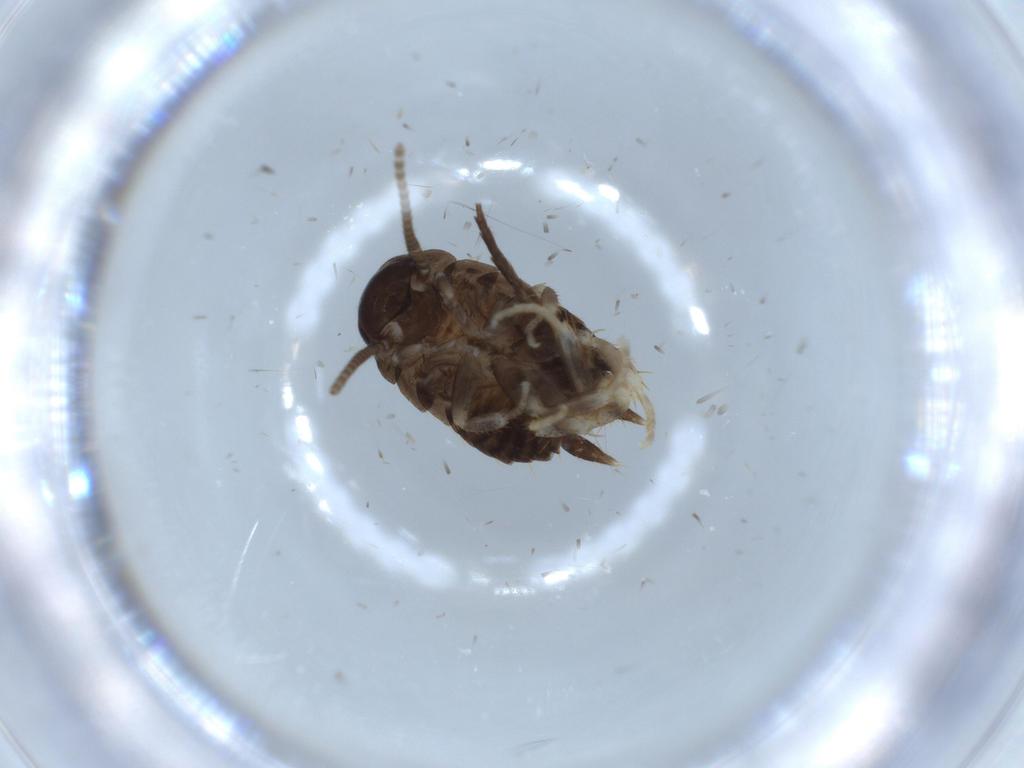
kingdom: Animalia
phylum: Arthropoda
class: Insecta
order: Blattodea
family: Ectobiidae
